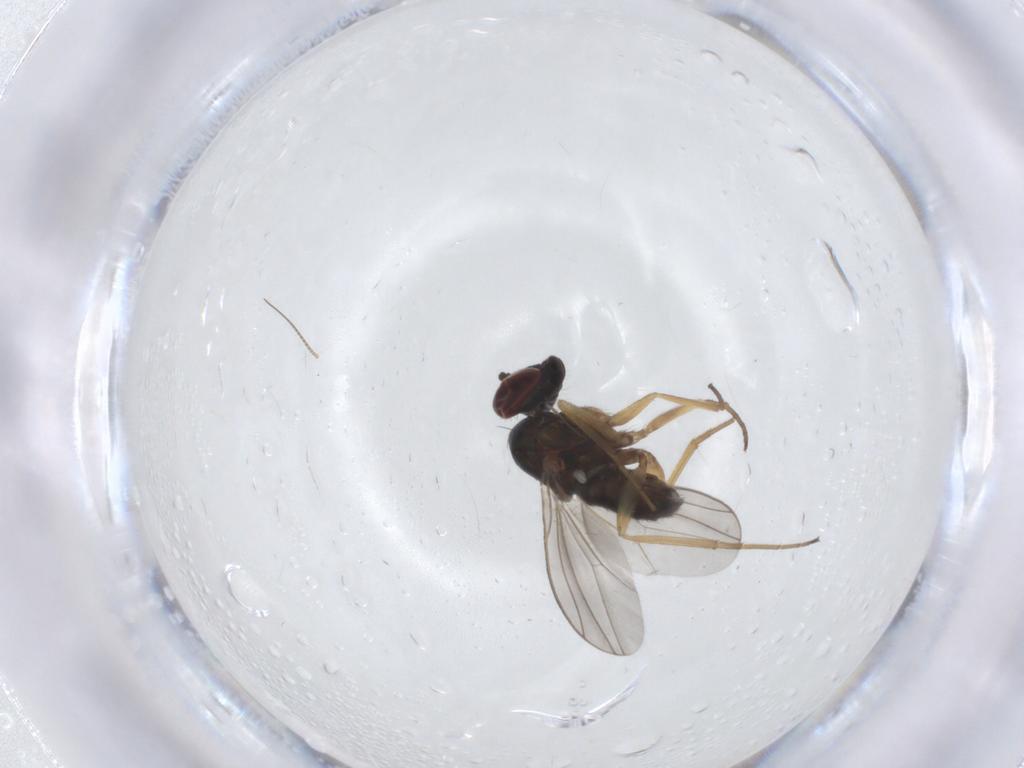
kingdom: Animalia
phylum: Arthropoda
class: Insecta
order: Diptera
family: Dolichopodidae
